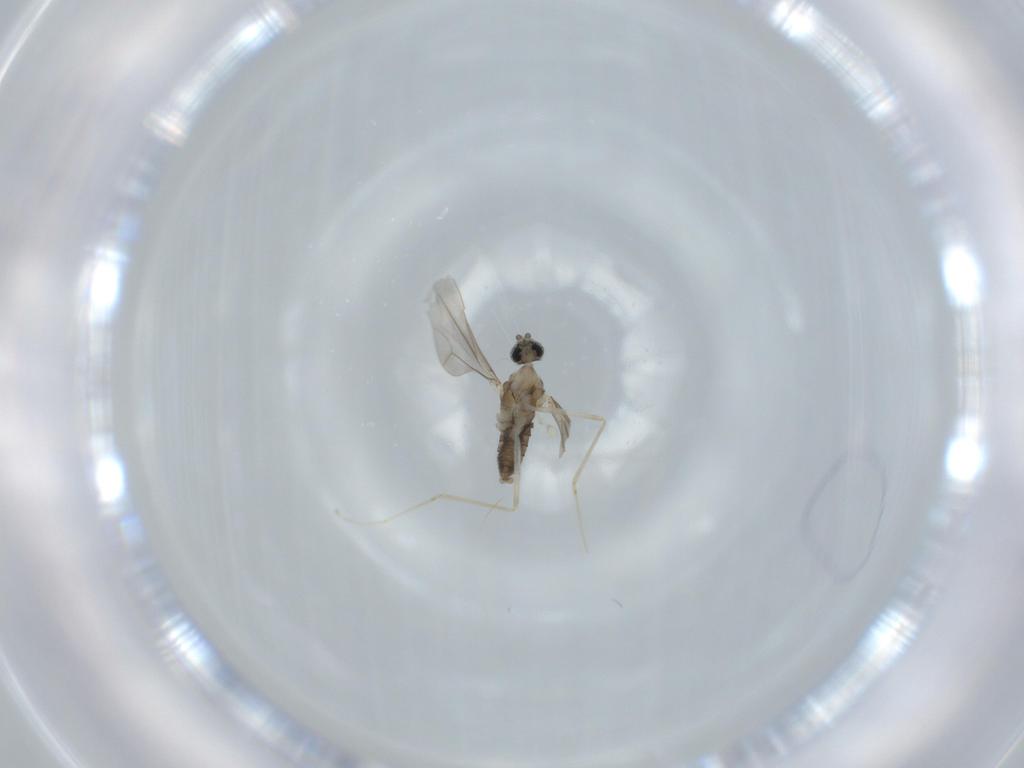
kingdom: Animalia
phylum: Arthropoda
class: Insecta
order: Diptera
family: Cecidomyiidae
